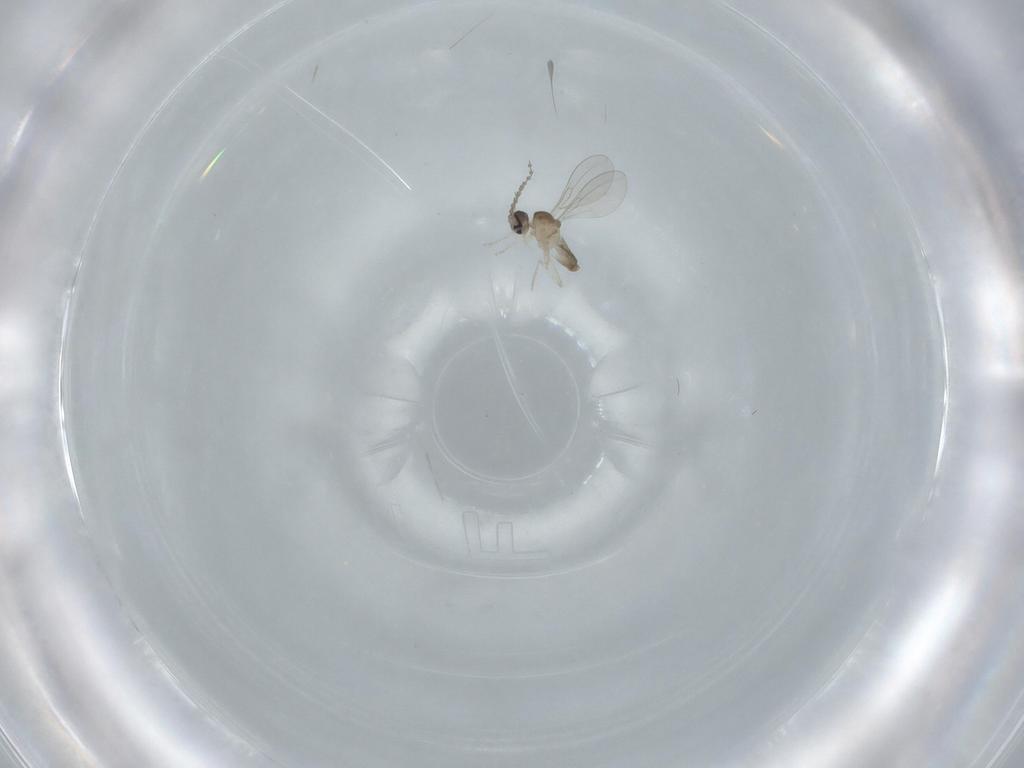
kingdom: Animalia
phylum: Arthropoda
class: Insecta
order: Diptera
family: Cecidomyiidae
